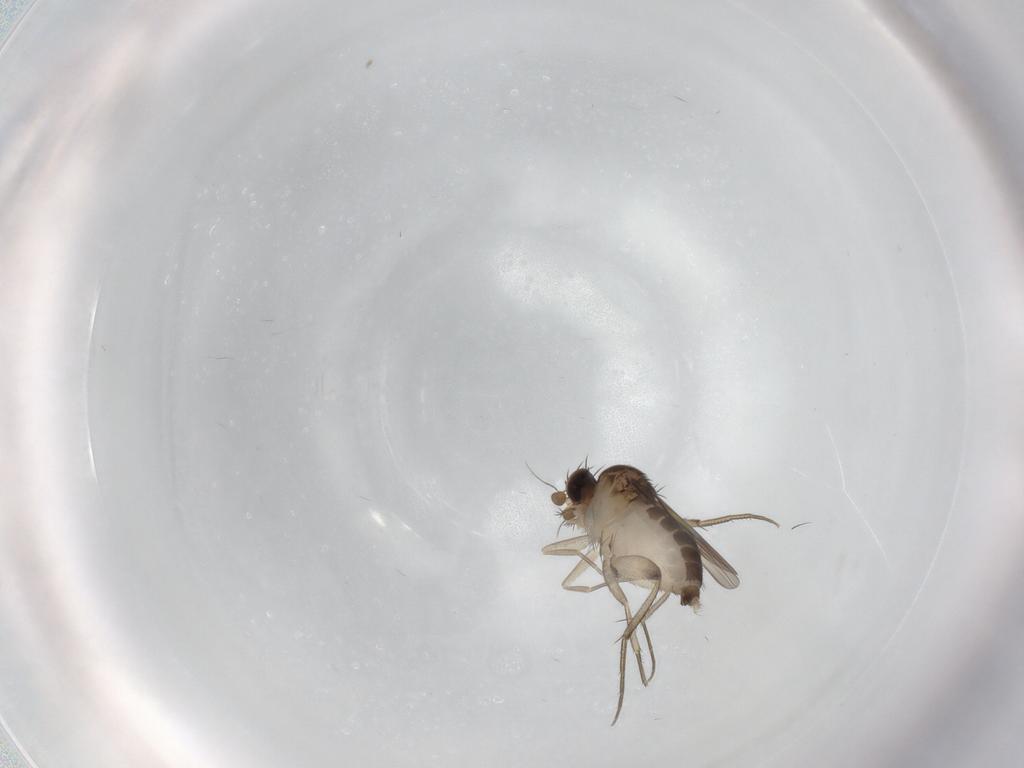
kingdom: Animalia
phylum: Arthropoda
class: Insecta
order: Diptera
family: Phoridae
